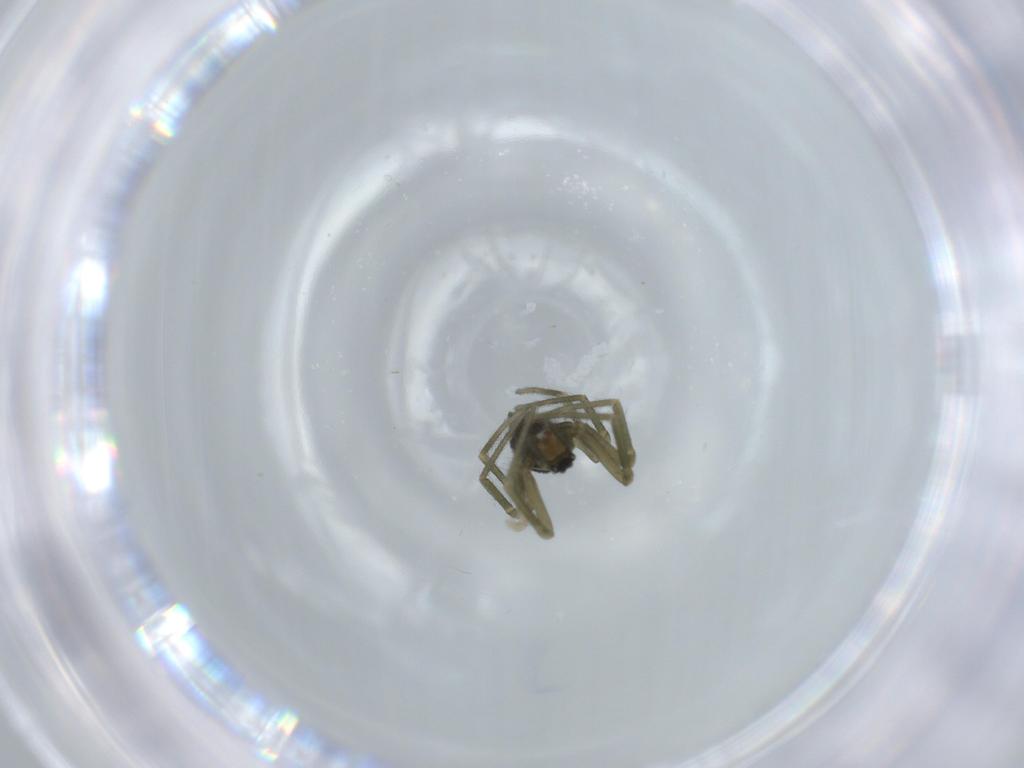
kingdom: Animalia
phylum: Arthropoda
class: Arachnida
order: Araneae
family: Linyphiidae
